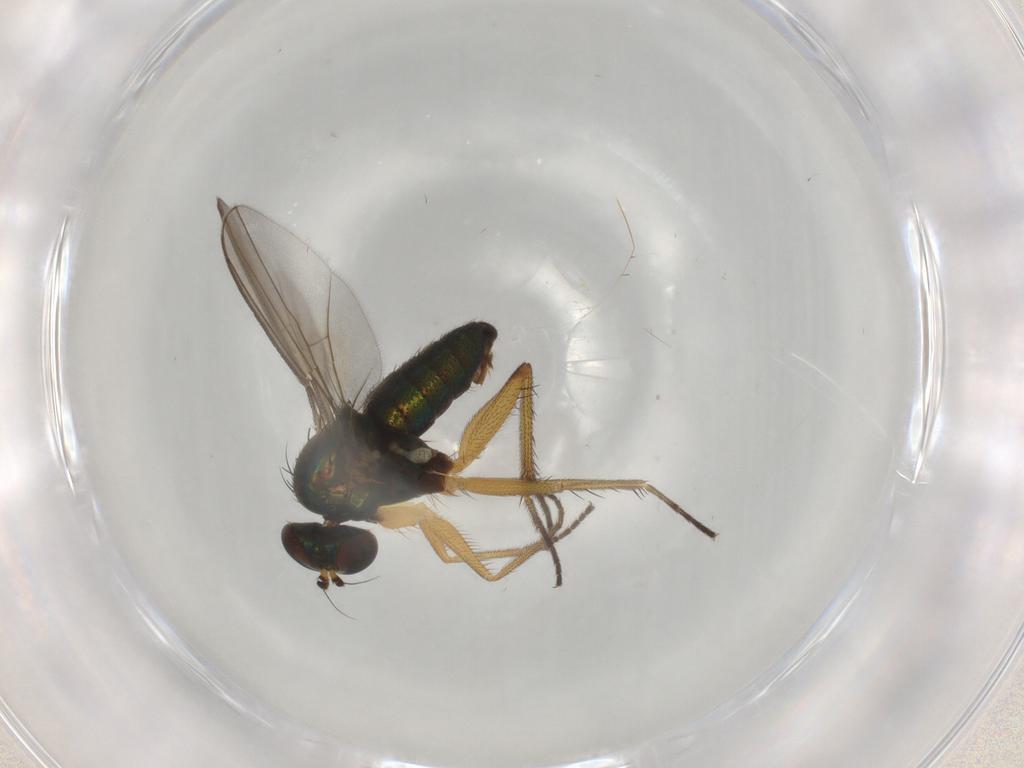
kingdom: Animalia
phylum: Arthropoda
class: Insecta
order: Diptera
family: Dolichopodidae
